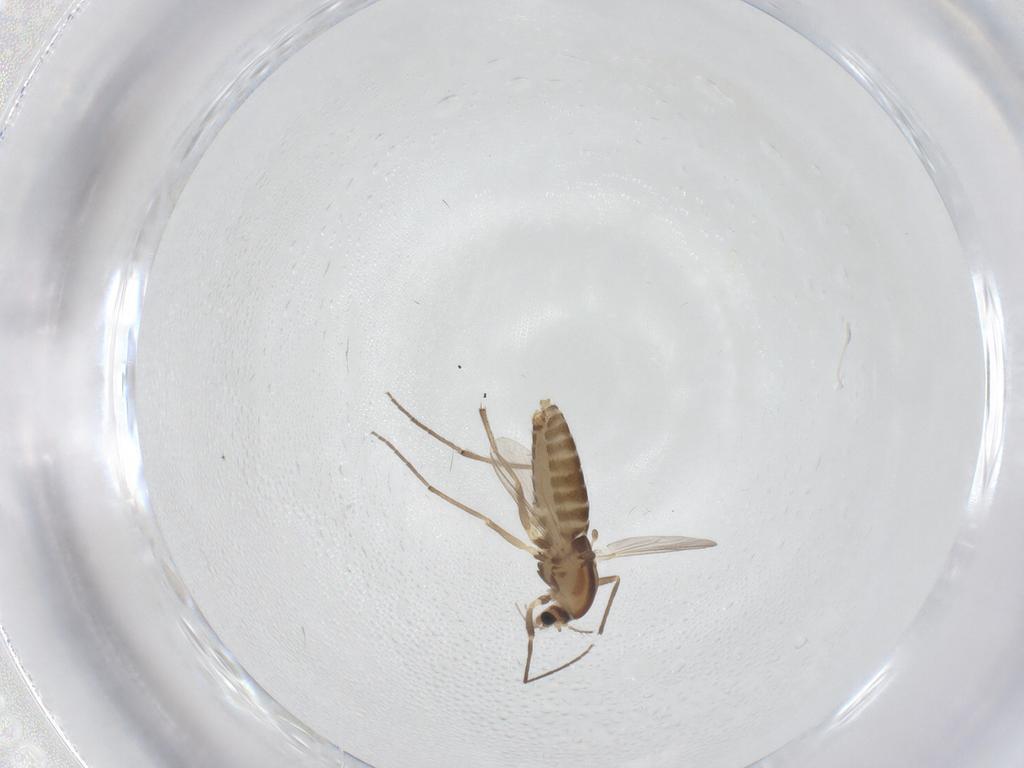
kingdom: Animalia
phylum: Arthropoda
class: Insecta
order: Diptera
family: Chironomidae
